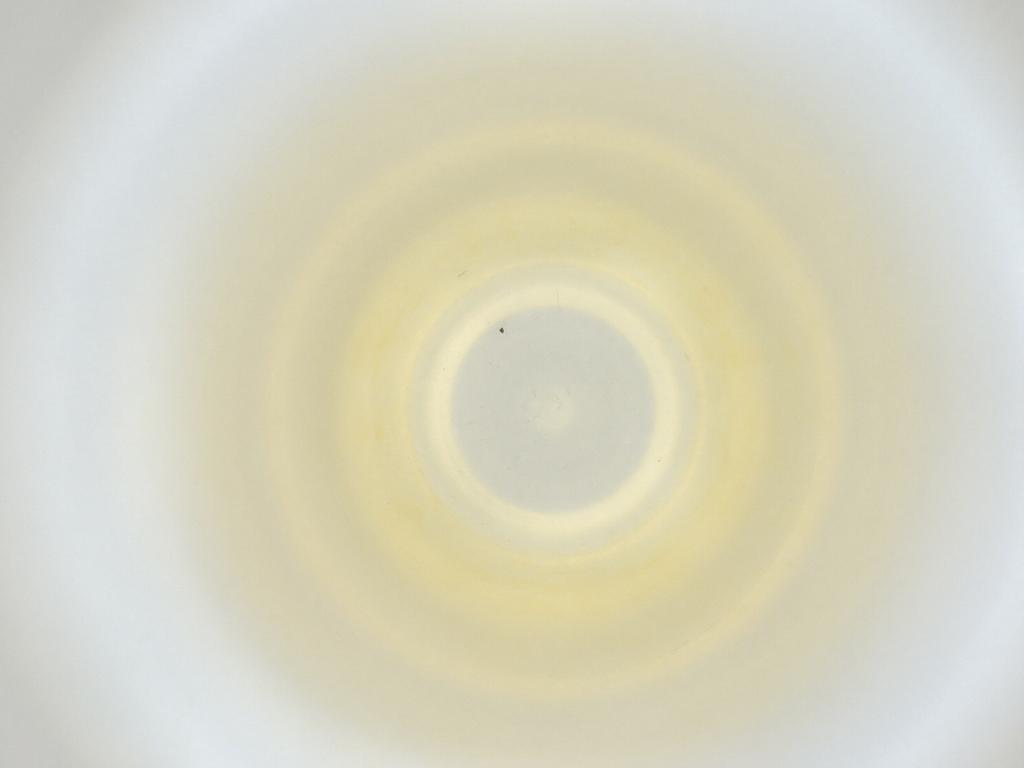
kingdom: Animalia
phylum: Arthropoda
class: Insecta
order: Diptera
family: Cecidomyiidae
